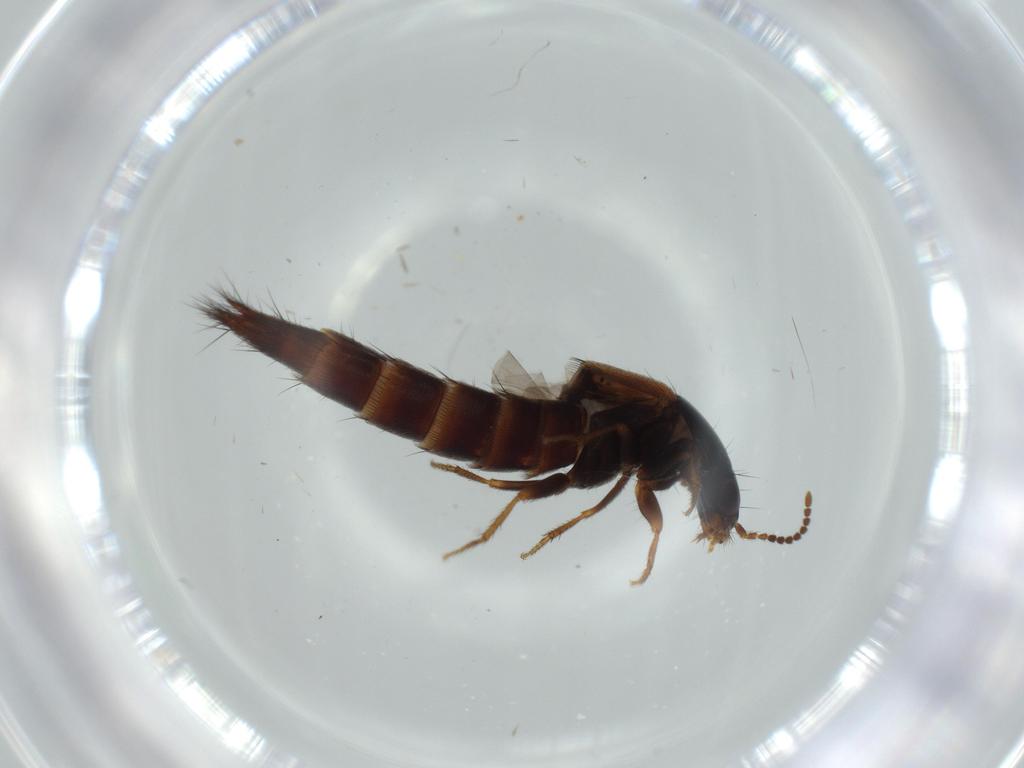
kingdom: Animalia
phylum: Arthropoda
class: Insecta
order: Coleoptera
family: Staphylinidae
